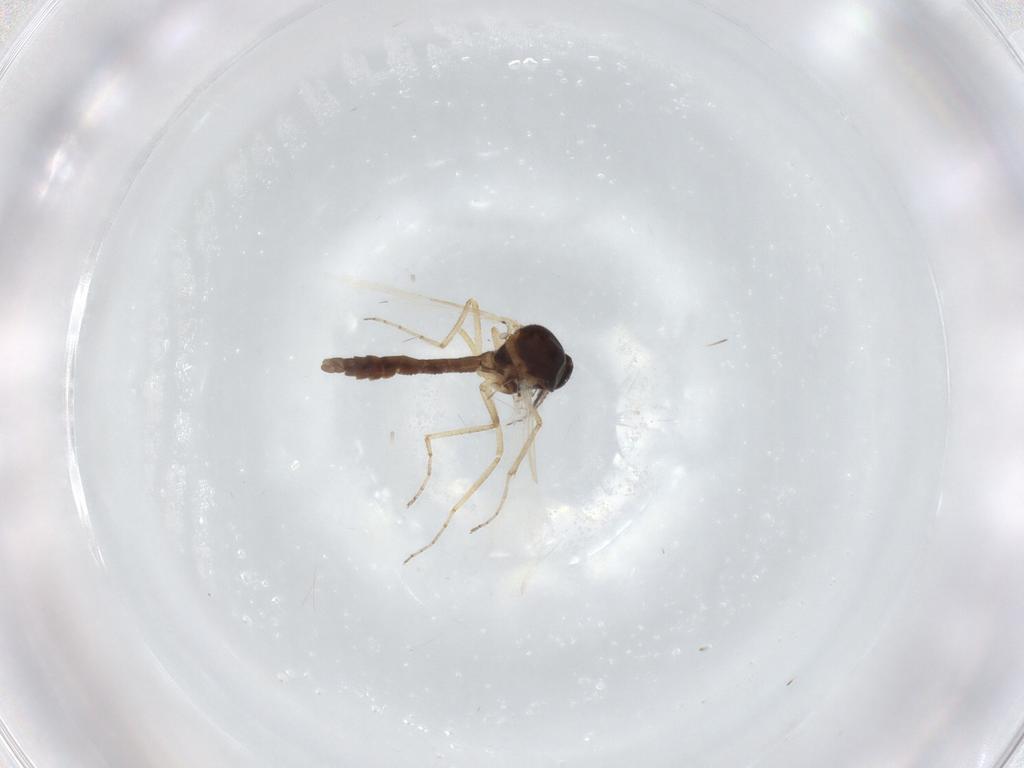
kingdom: Animalia
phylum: Arthropoda
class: Insecta
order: Diptera
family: Ceratopogonidae
